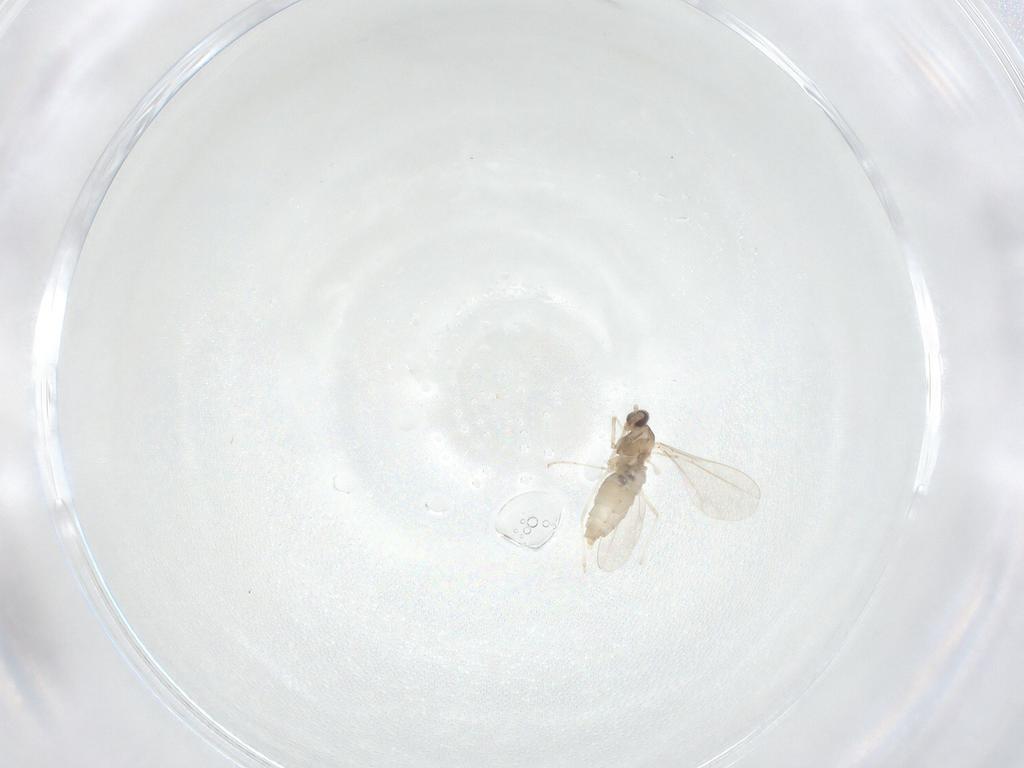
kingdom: Animalia
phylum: Arthropoda
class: Insecta
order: Diptera
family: Cecidomyiidae
